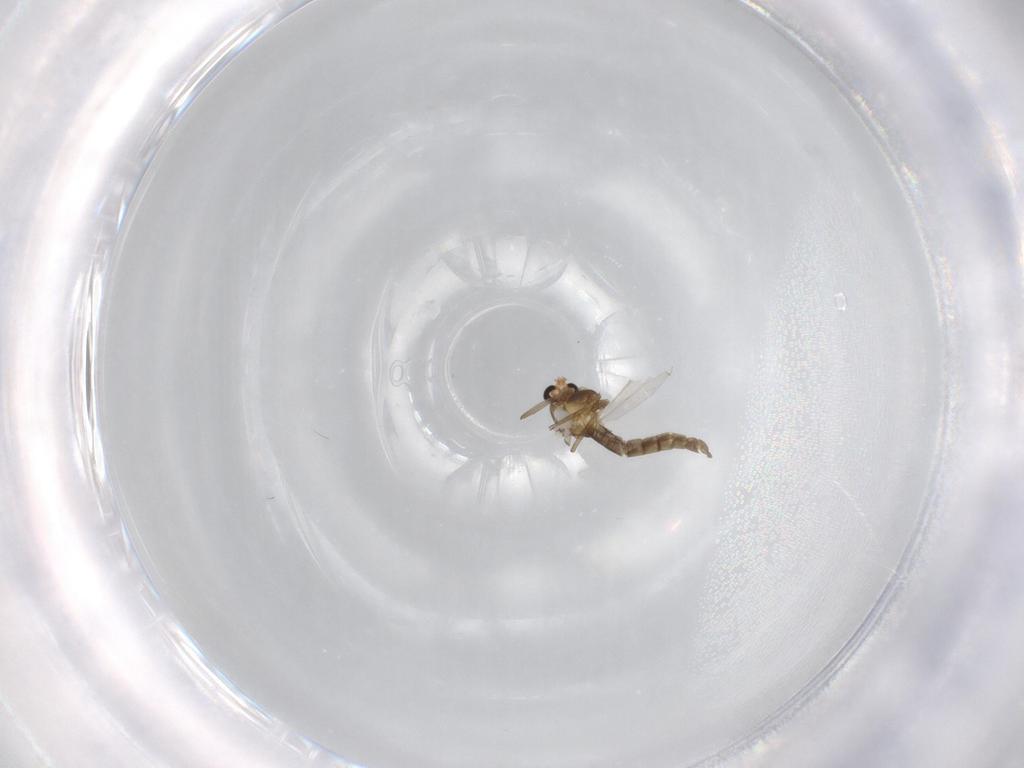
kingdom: Animalia
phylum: Arthropoda
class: Insecta
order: Diptera
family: Chironomidae
